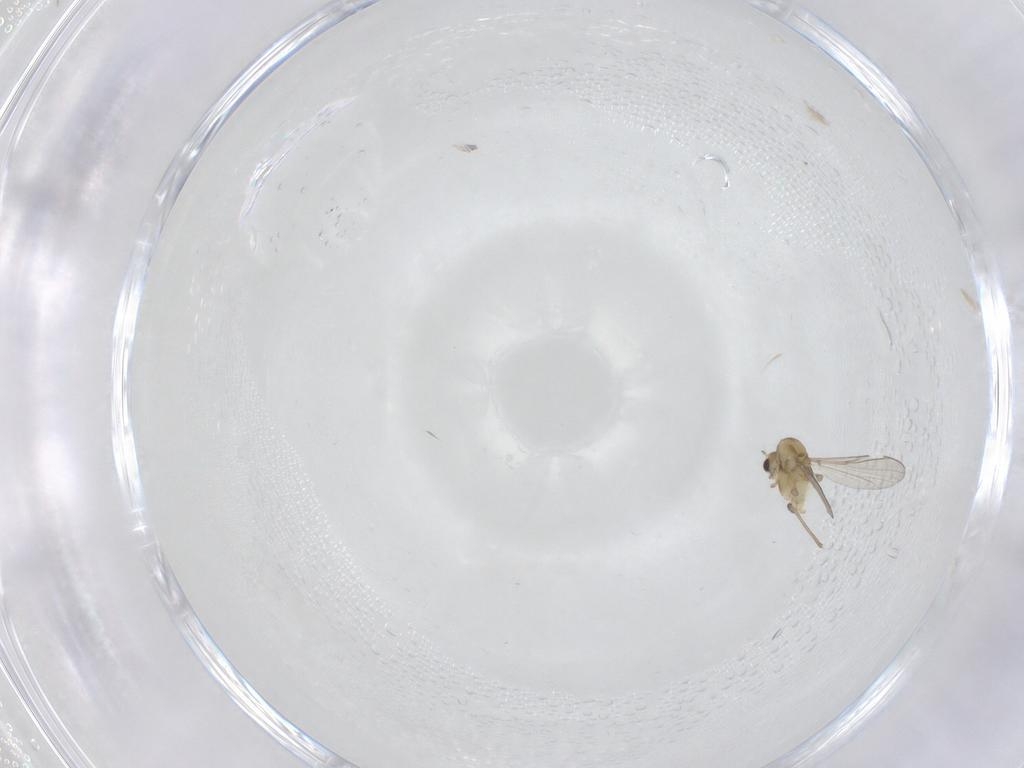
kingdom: Animalia
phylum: Arthropoda
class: Insecta
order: Diptera
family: Chironomidae
